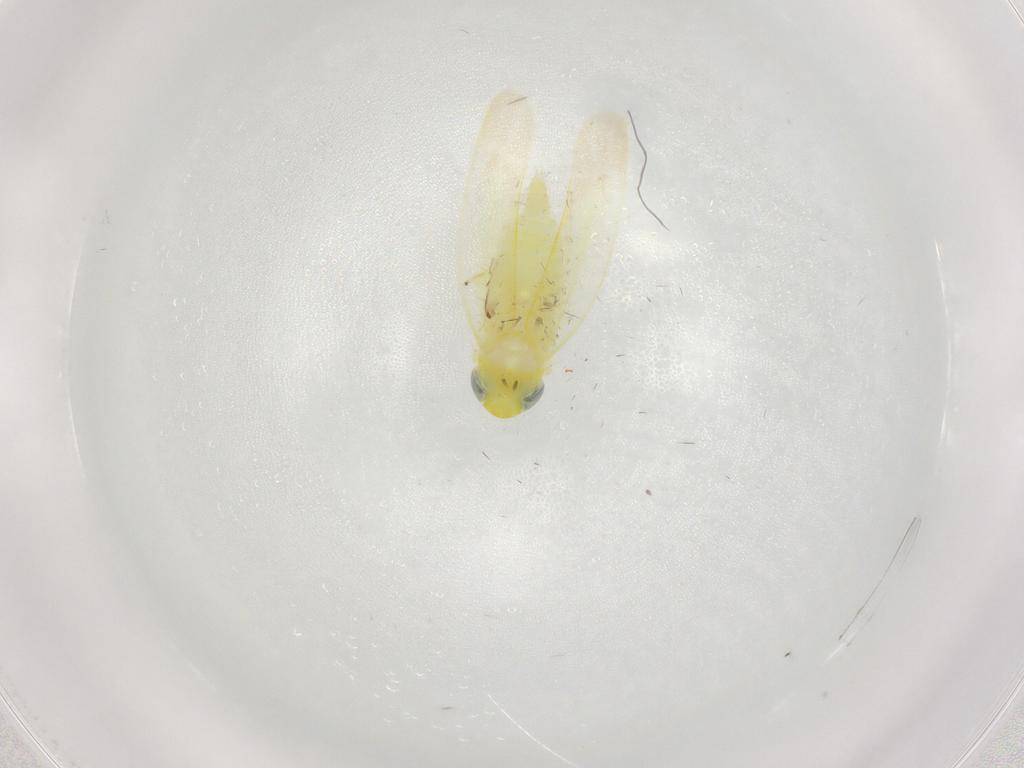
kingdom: Animalia
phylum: Arthropoda
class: Insecta
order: Hemiptera
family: Cicadellidae
